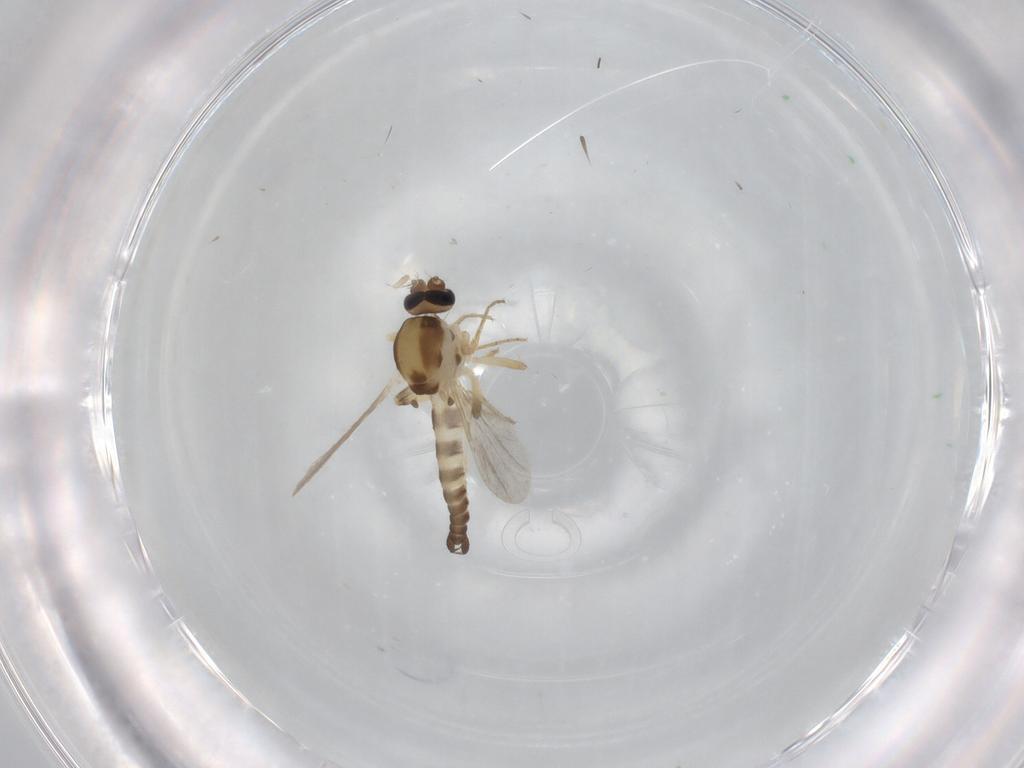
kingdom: Animalia
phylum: Arthropoda
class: Insecta
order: Diptera
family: Ceratopogonidae
